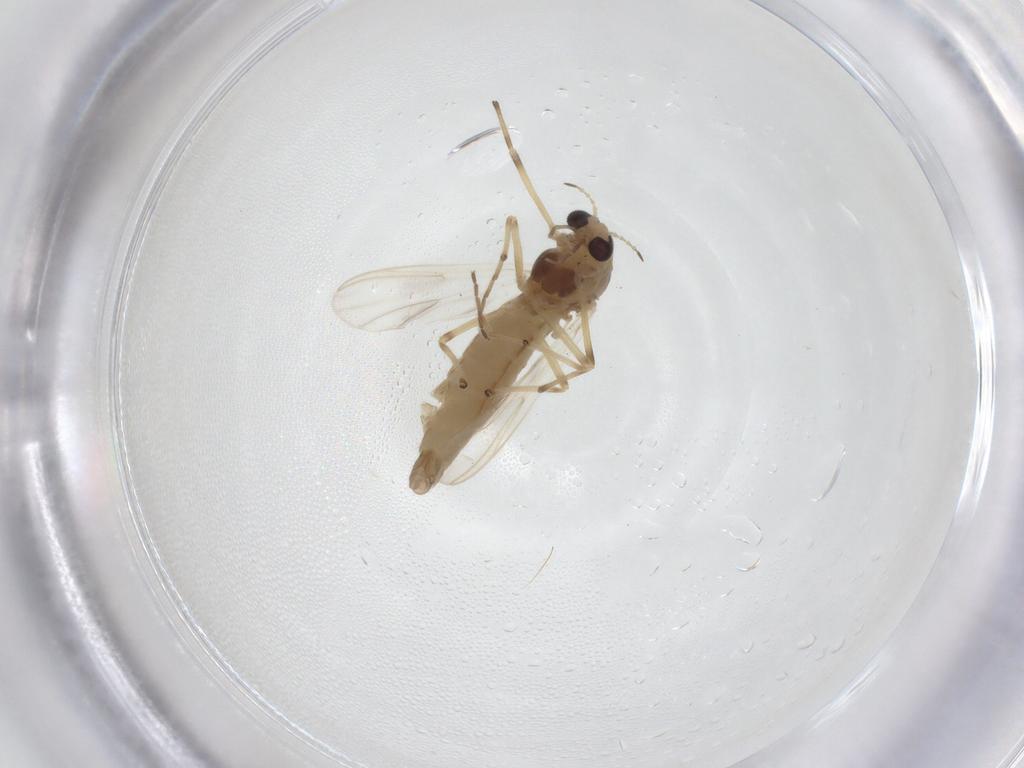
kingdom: Animalia
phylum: Arthropoda
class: Insecta
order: Diptera
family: Chironomidae
